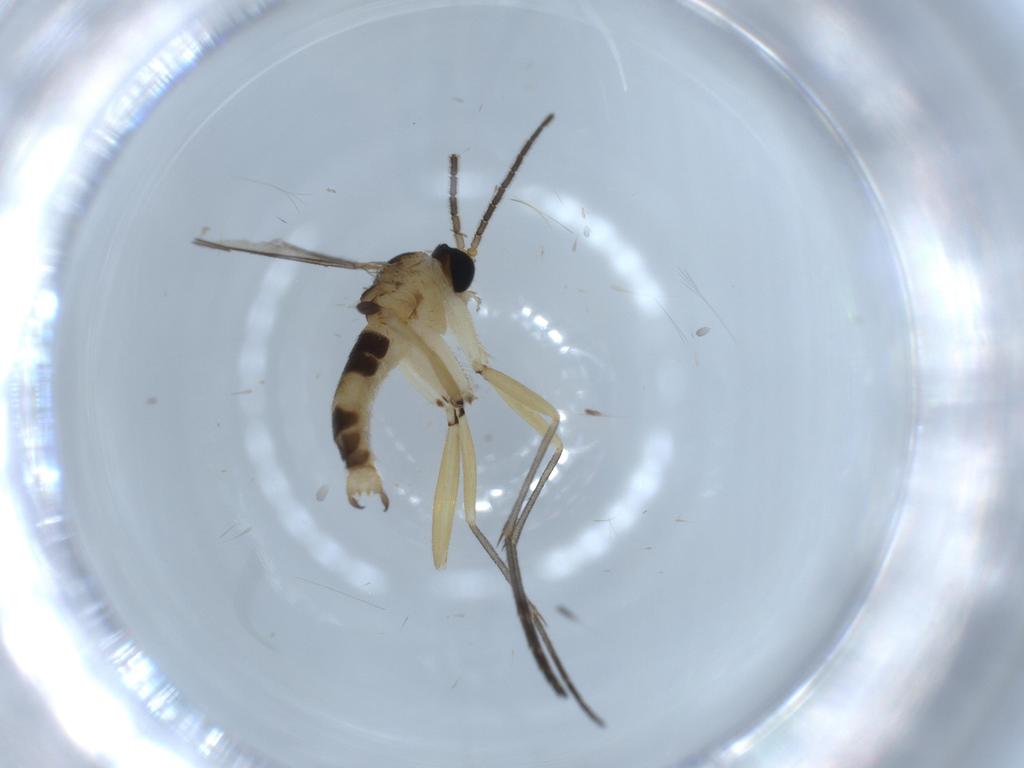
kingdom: Animalia
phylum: Arthropoda
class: Insecta
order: Diptera
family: Sciaridae
